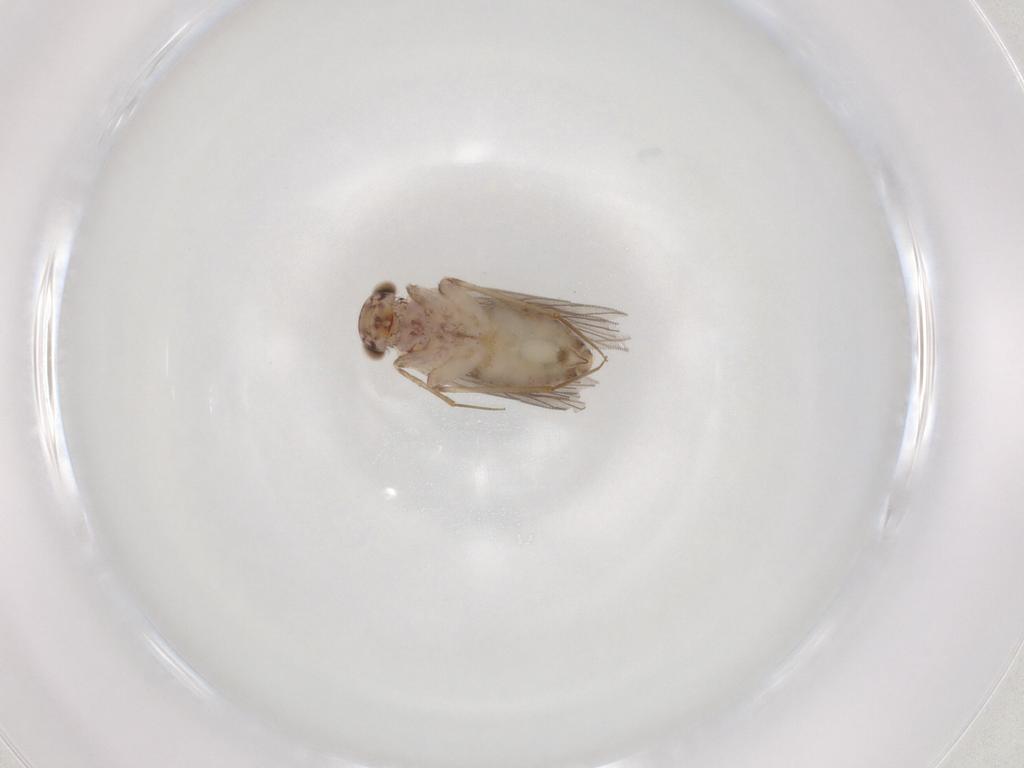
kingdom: Animalia
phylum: Arthropoda
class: Insecta
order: Psocodea
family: Lepidopsocidae
